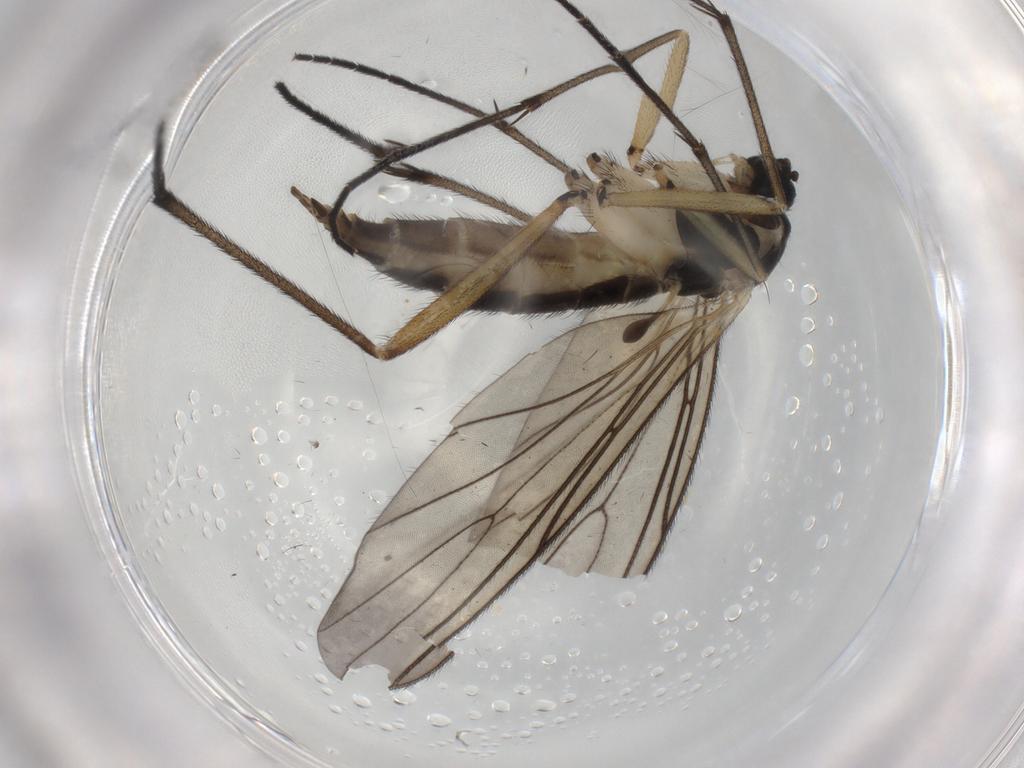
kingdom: Animalia
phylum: Arthropoda
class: Insecta
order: Diptera
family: Sciaridae
